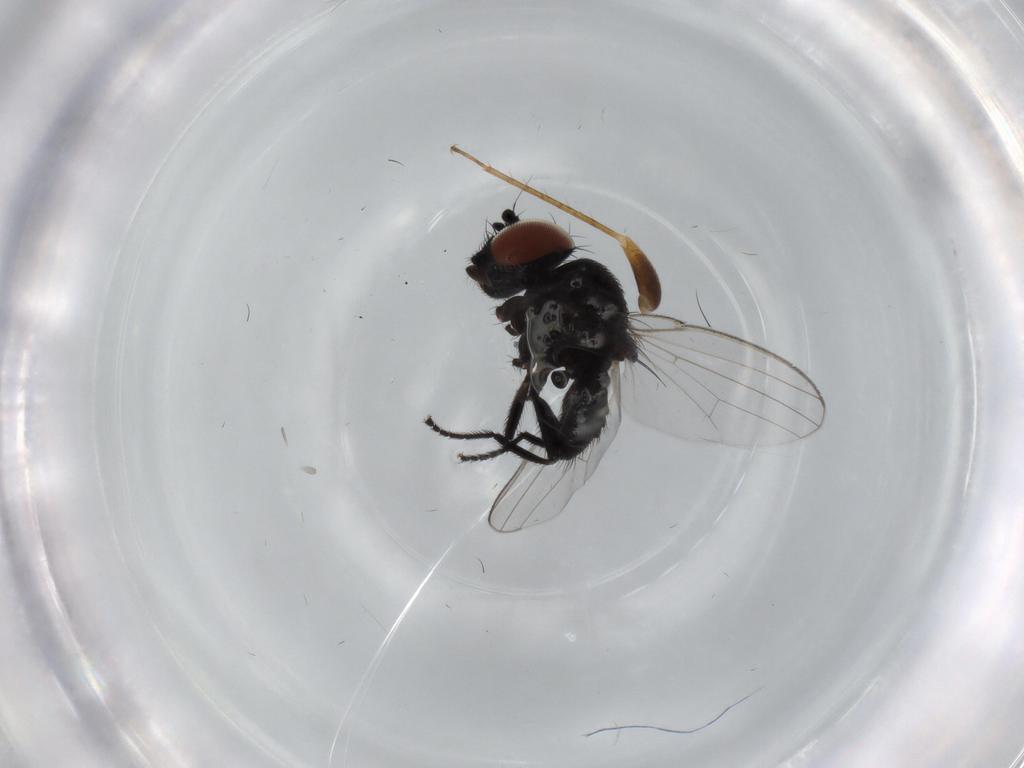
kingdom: Animalia
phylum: Arthropoda
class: Insecta
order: Diptera
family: Milichiidae
